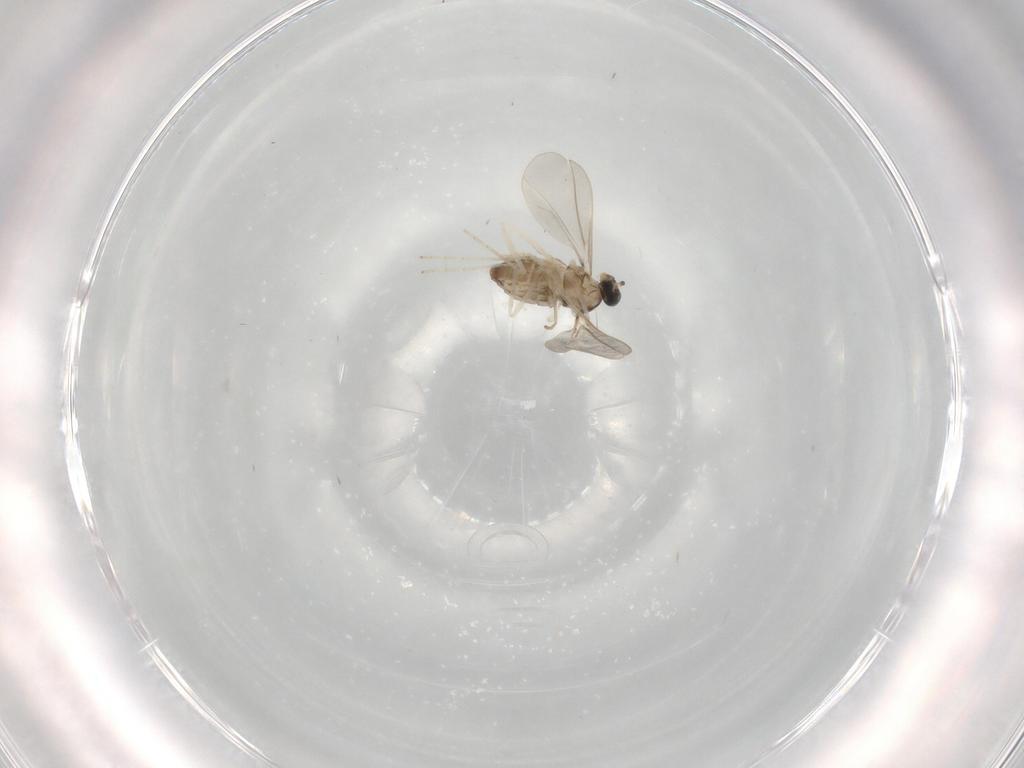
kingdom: Animalia
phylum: Arthropoda
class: Insecta
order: Diptera
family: Cecidomyiidae
